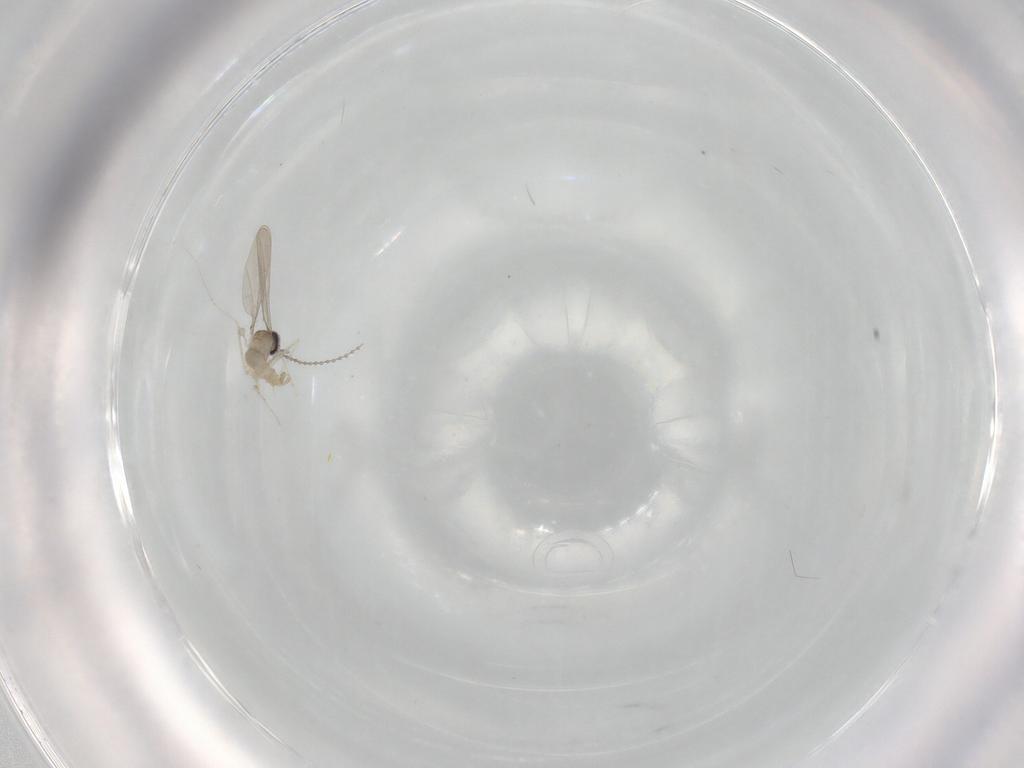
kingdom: Animalia
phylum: Arthropoda
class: Insecta
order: Diptera
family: Cecidomyiidae
